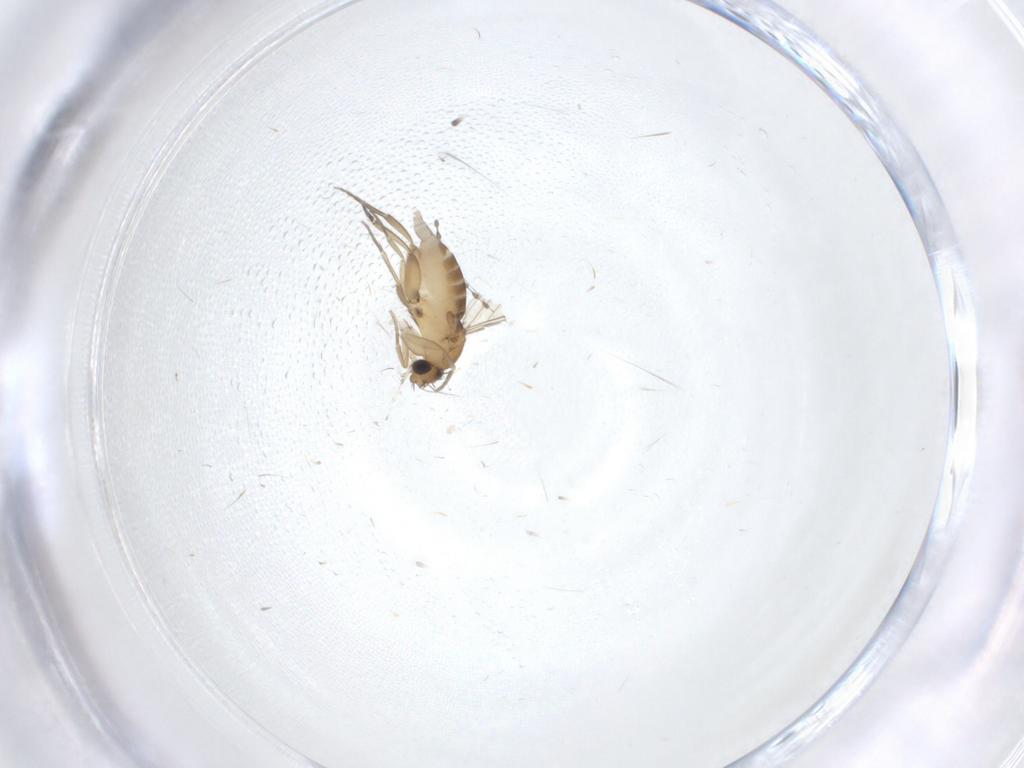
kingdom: Animalia
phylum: Arthropoda
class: Insecta
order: Diptera
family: Cecidomyiidae
